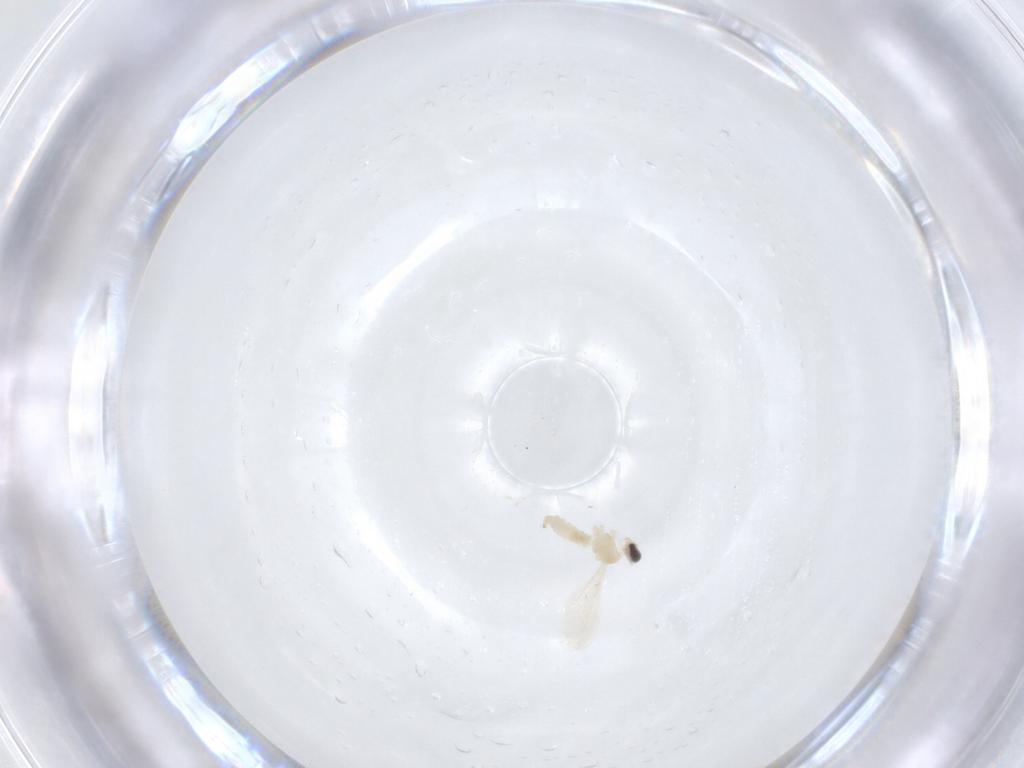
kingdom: Animalia
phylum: Arthropoda
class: Insecta
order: Diptera
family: Cecidomyiidae
